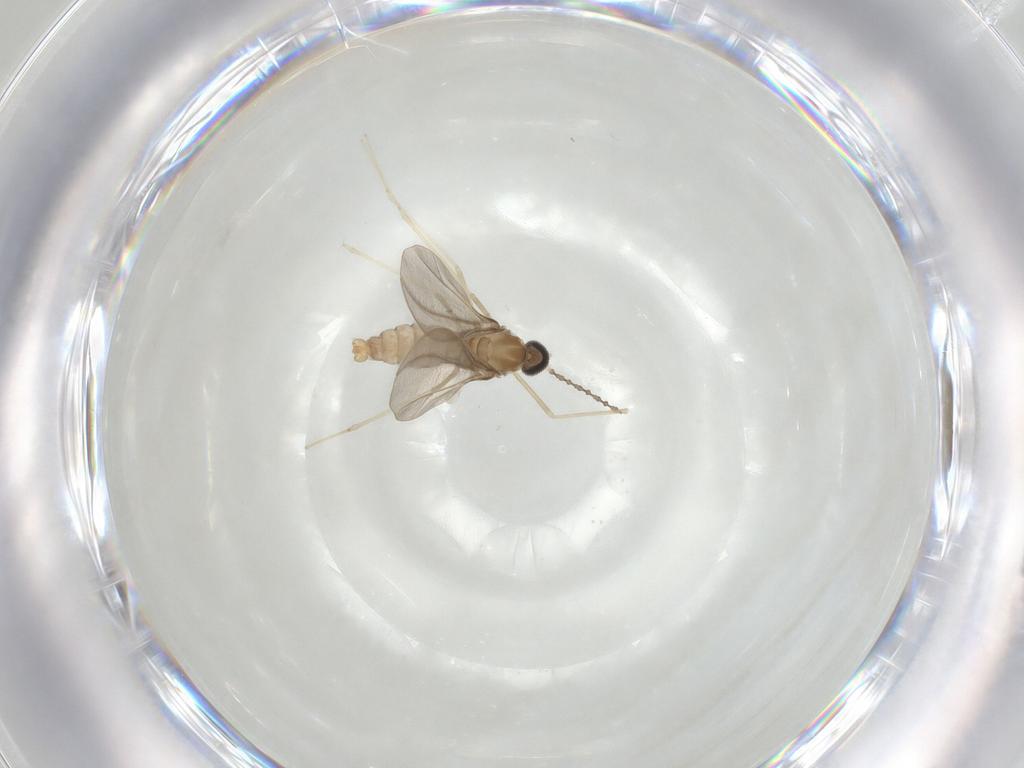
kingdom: Animalia
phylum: Arthropoda
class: Insecta
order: Diptera
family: Cecidomyiidae
